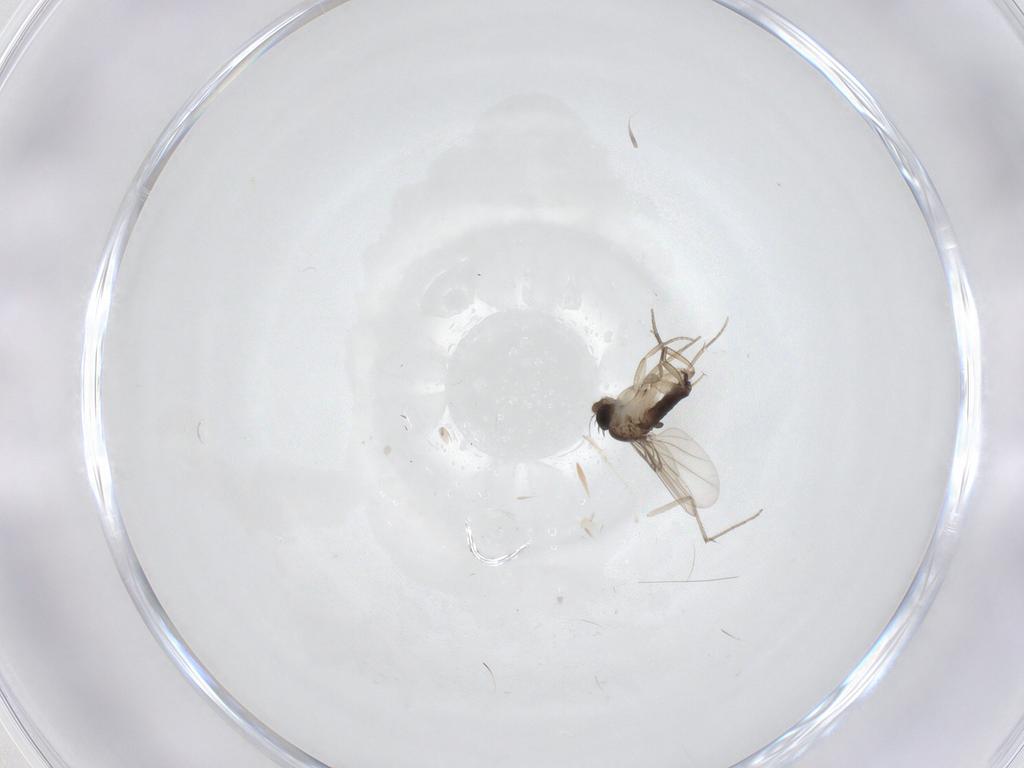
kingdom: Animalia
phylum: Arthropoda
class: Insecta
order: Diptera
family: Phoridae
